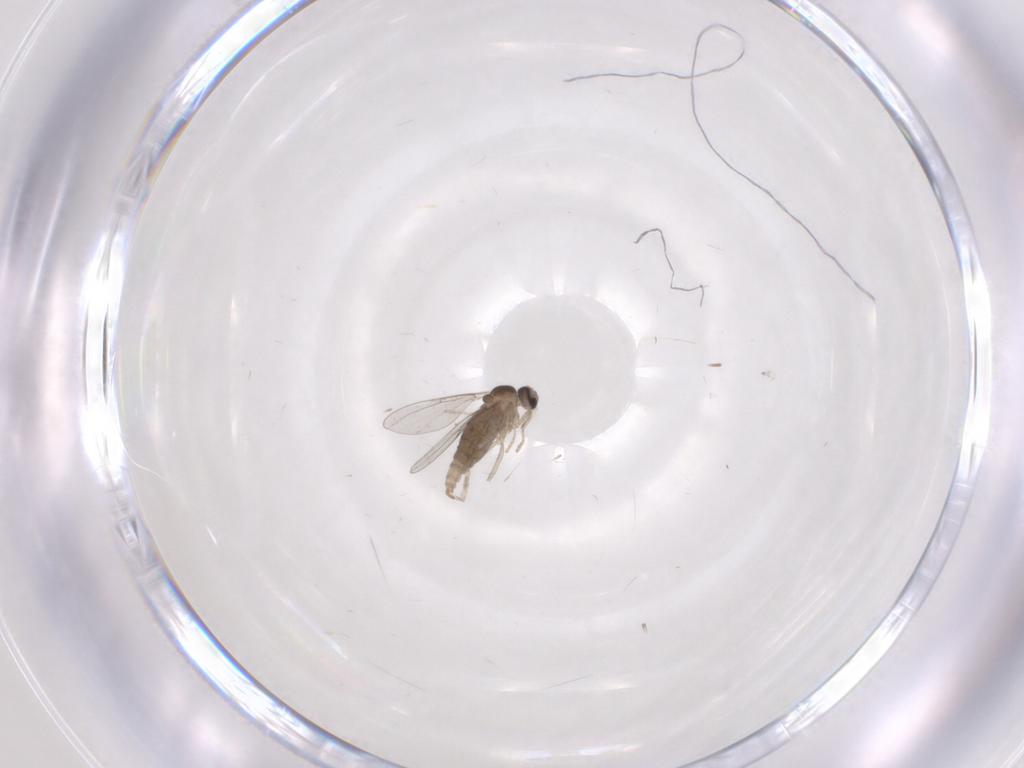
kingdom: Animalia
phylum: Arthropoda
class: Insecta
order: Diptera
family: Cecidomyiidae
